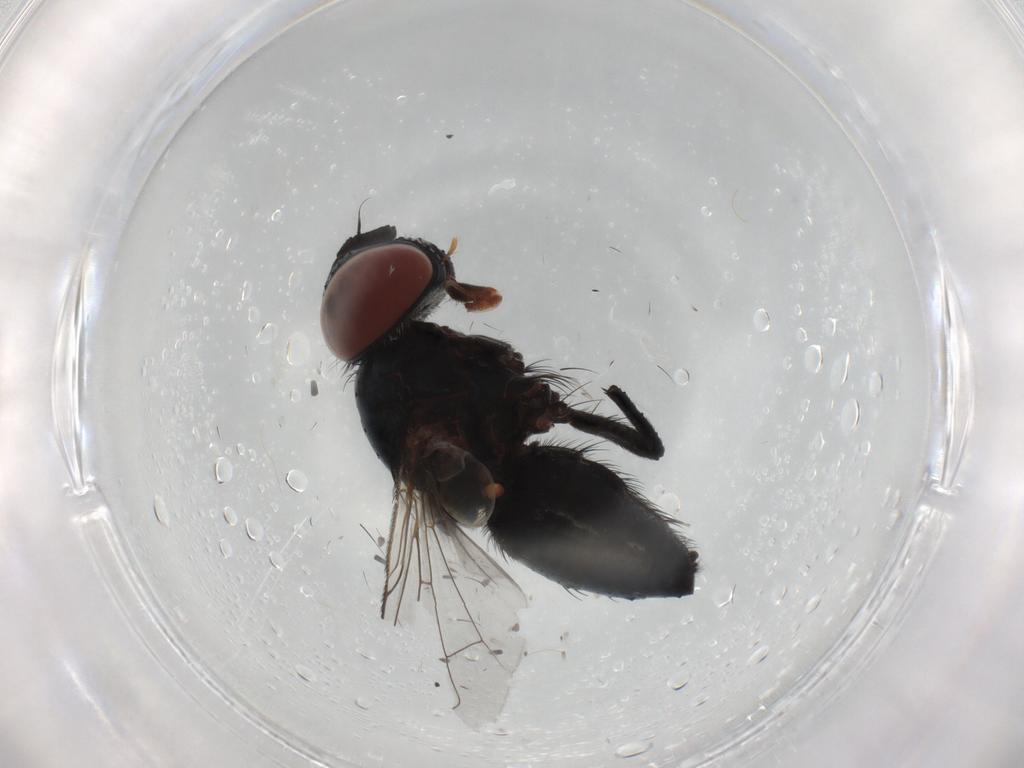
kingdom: Animalia
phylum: Arthropoda
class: Insecta
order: Diptera
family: Tachinidae
